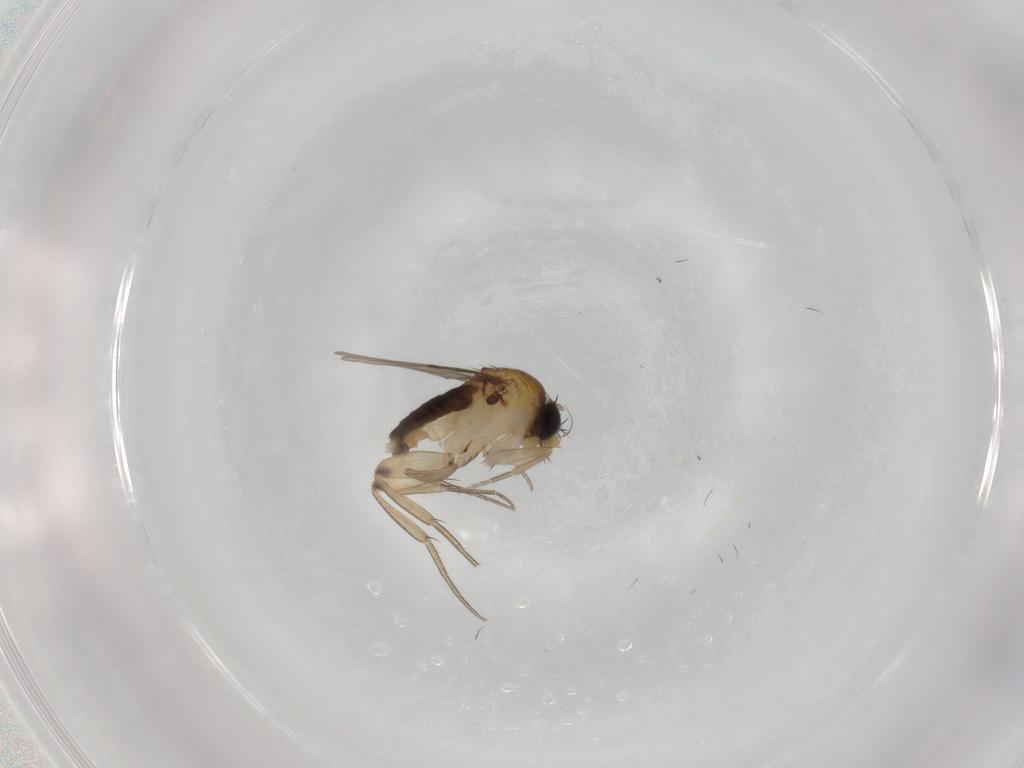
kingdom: Animalia
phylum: Arthropoda
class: Insecta
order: Diptera
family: Phoridae
